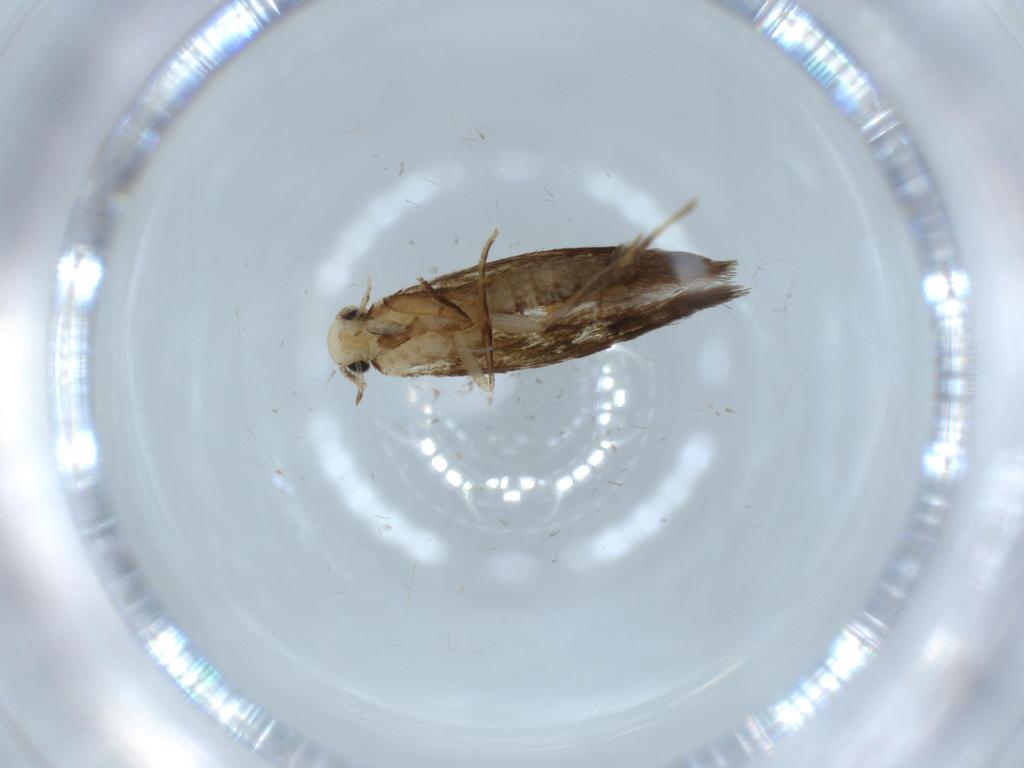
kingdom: Animalia
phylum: Arthropoda
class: Insecta
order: Lepidoptera
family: Tineidae
